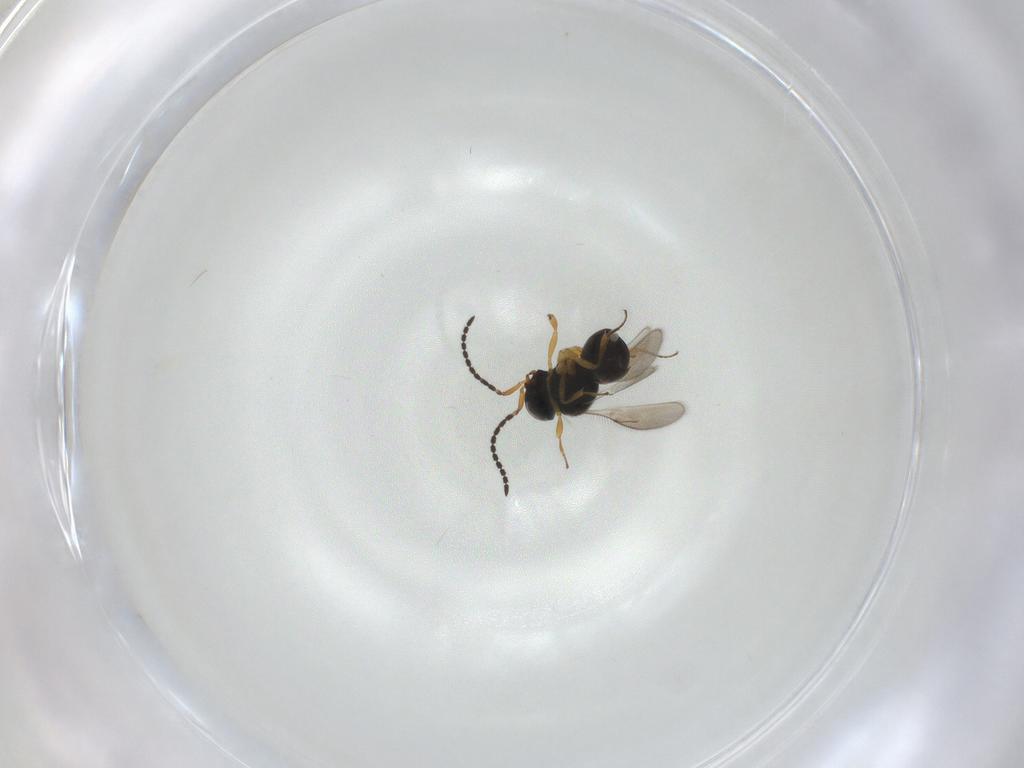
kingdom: Animalia
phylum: Arthropoda
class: Insecta
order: Hymenoptera
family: Scelionidae
